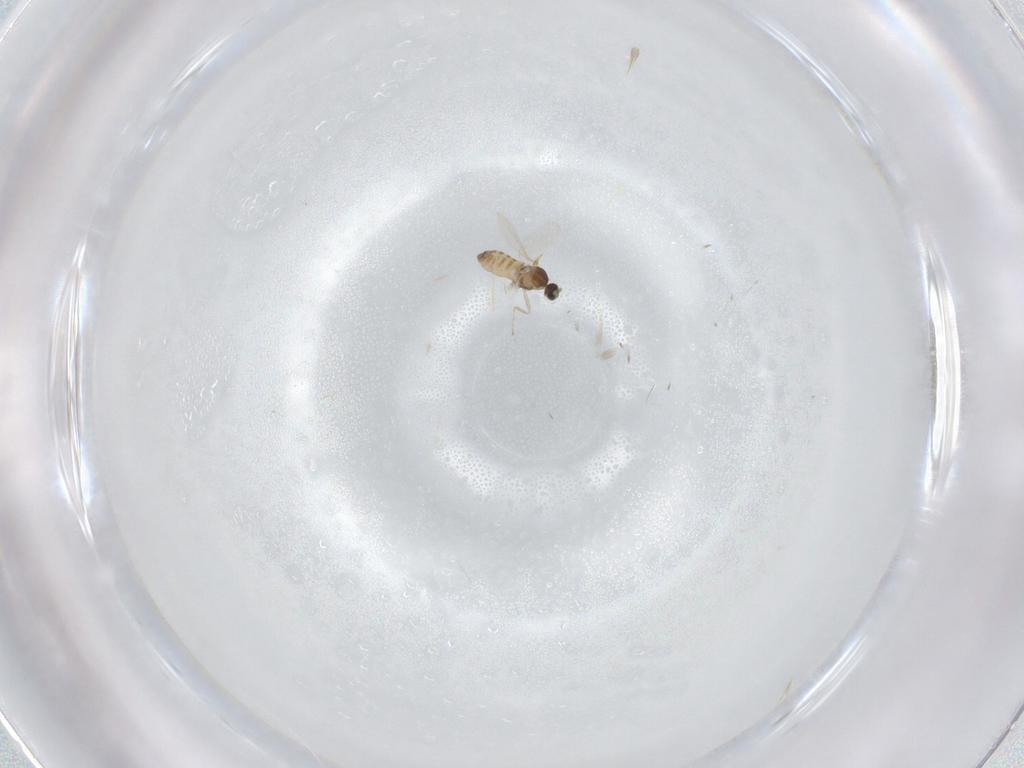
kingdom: Animalia
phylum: Arthropoda
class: Insecta
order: Diptera
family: Cecidomyiidae
